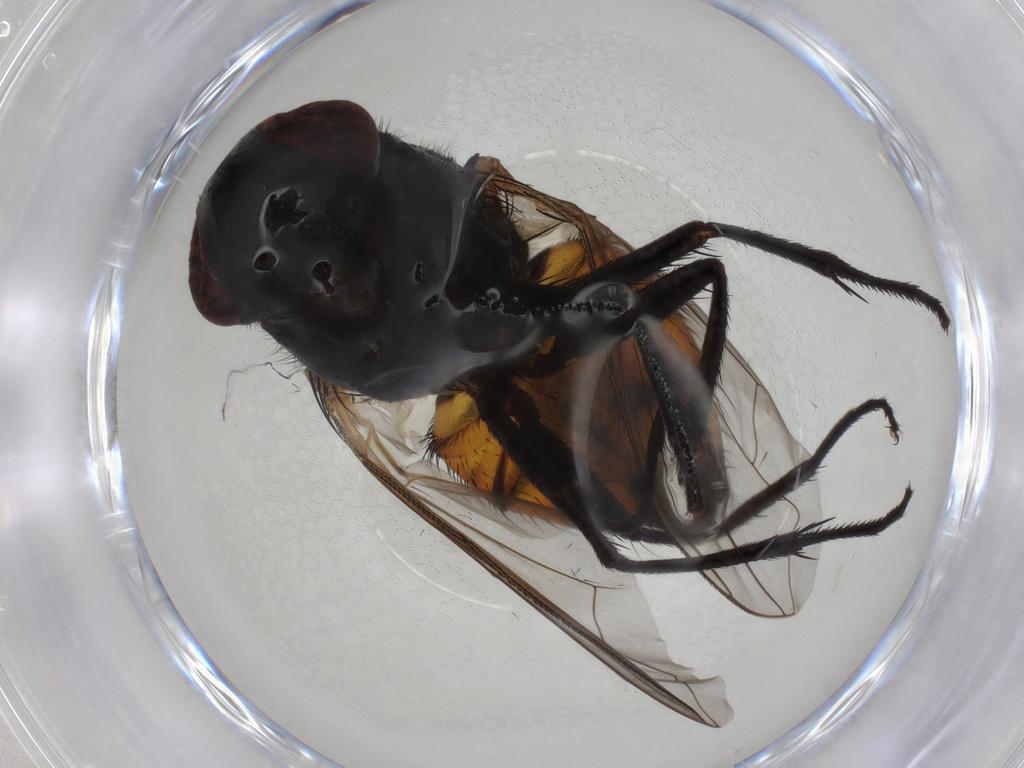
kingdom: Animalia
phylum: Arthropoda
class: Insecta
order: Diptera
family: Muscidae
